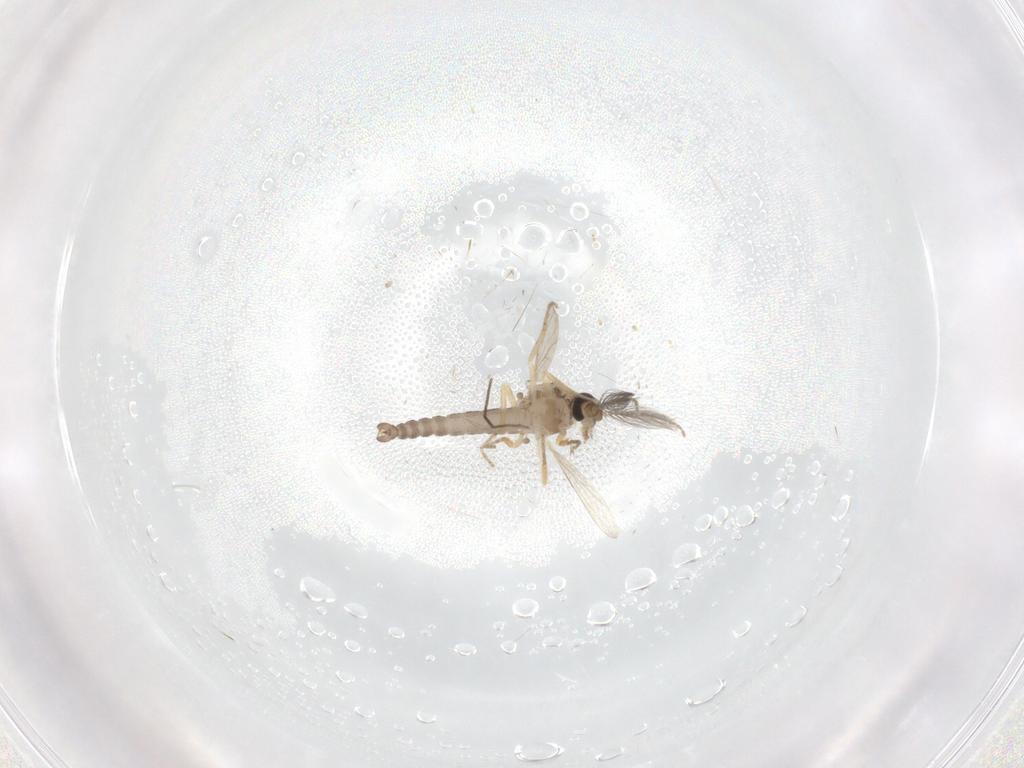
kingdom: Animalia
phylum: Arthropoda
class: Insecta
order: Diptera
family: Ceratopogonidae
